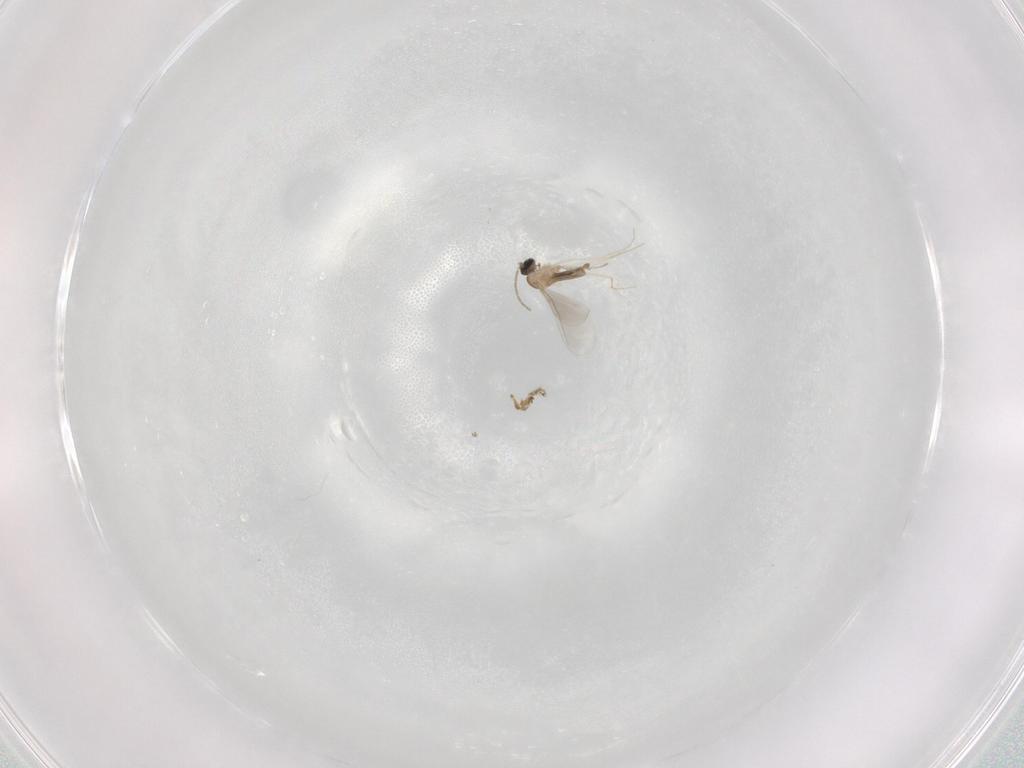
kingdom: Animalia
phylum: Arthropoda
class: Insecta
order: Diptera
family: Cecidomyiidae
